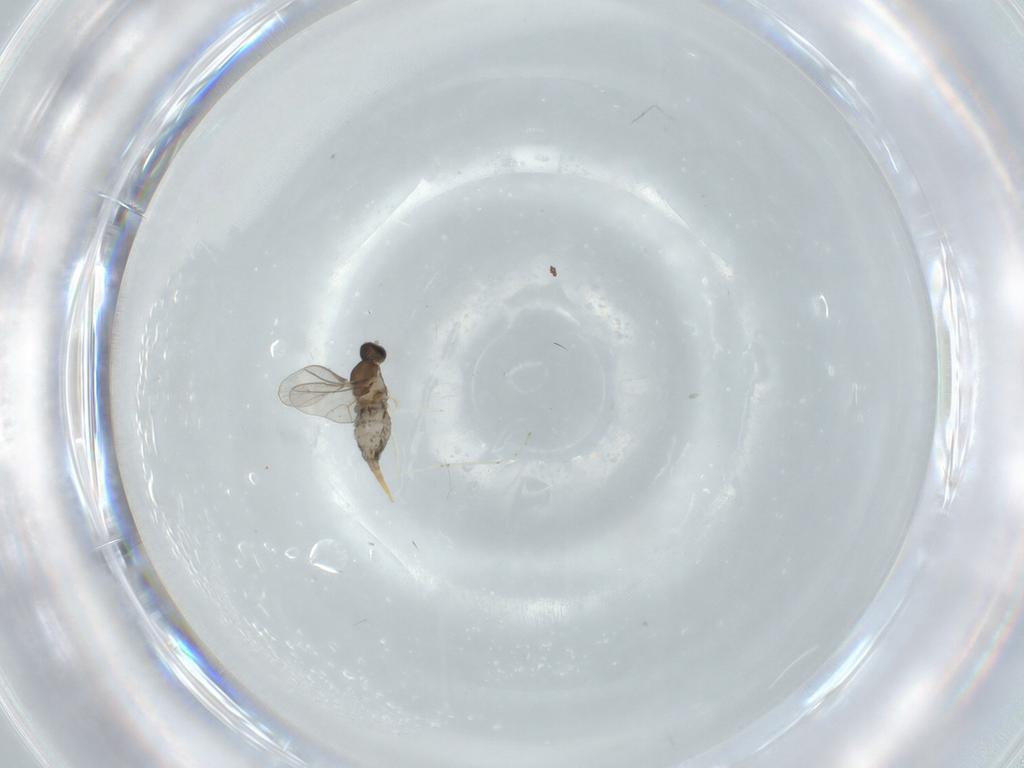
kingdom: Animalia
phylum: Arthropoda
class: Insecta
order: Diptera
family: Cecidomyiidae
